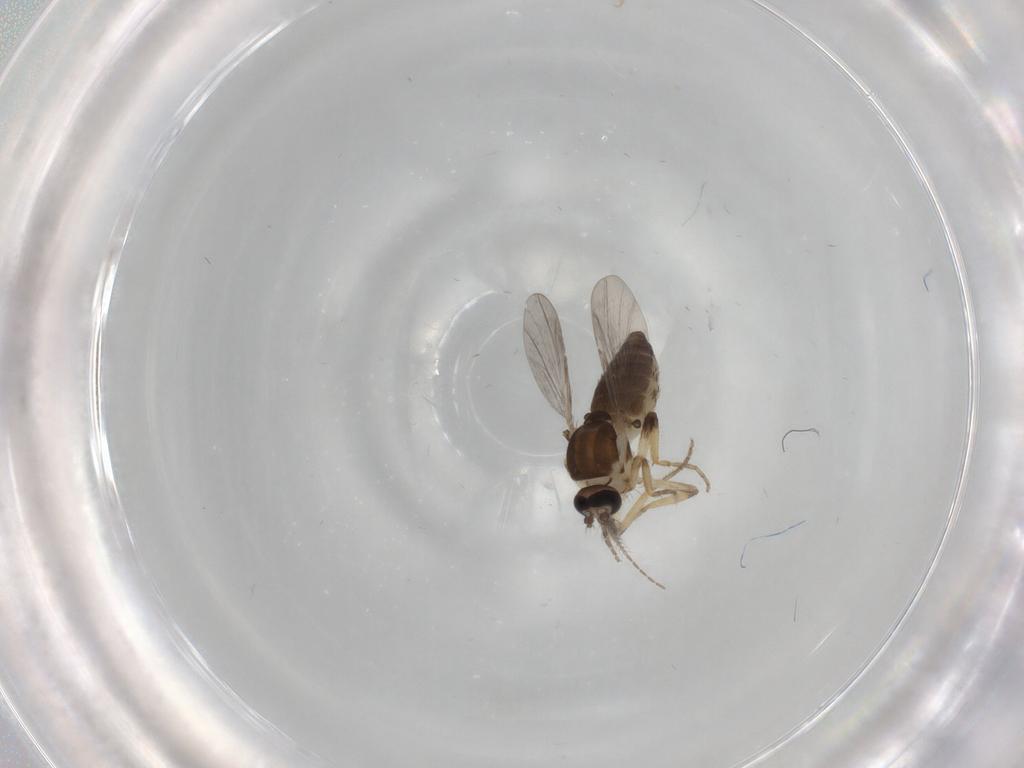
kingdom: Animalia
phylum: Arthropoda
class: Insecta
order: Diptera
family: Ceratopogonidae
